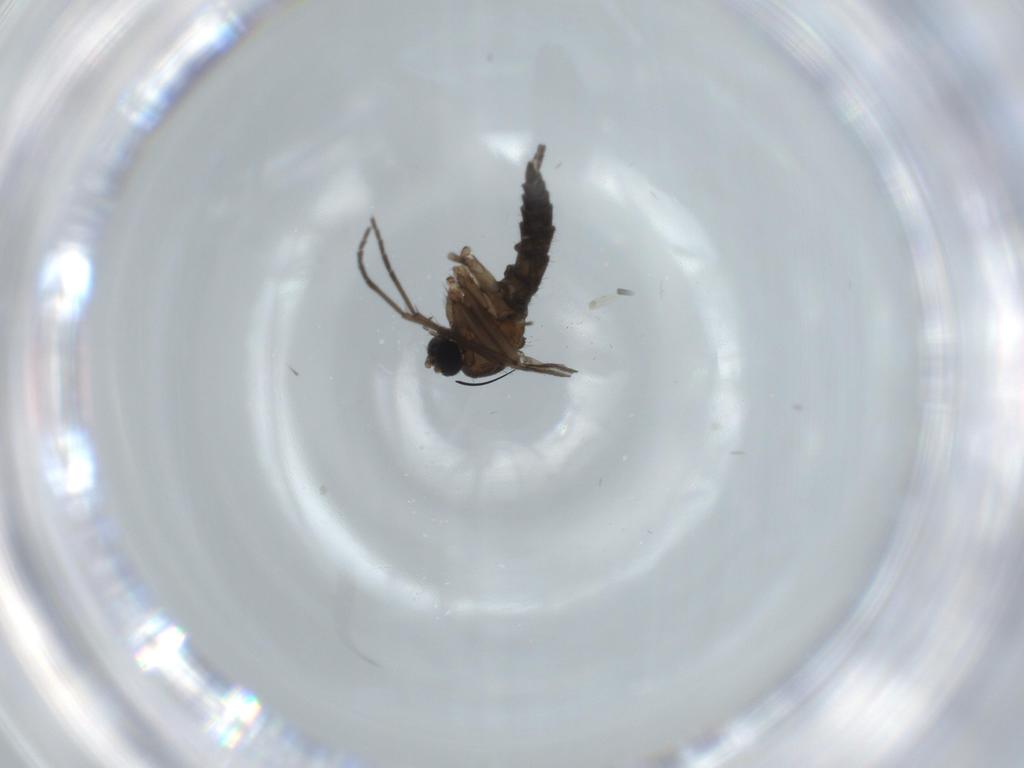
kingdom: Animalia
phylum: Arthropoda
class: Insecta
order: Diptera
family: Sciaridae
